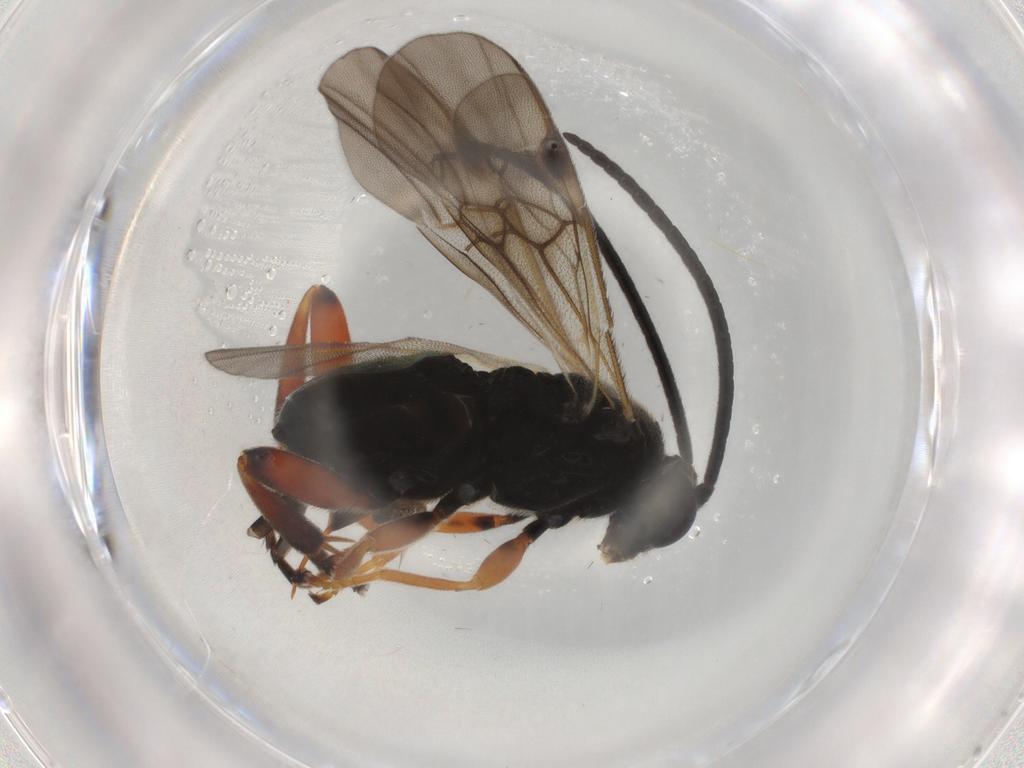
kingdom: Animalia
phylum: Arthropoda
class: Insecta
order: Hymenoptera
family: Braconidae
